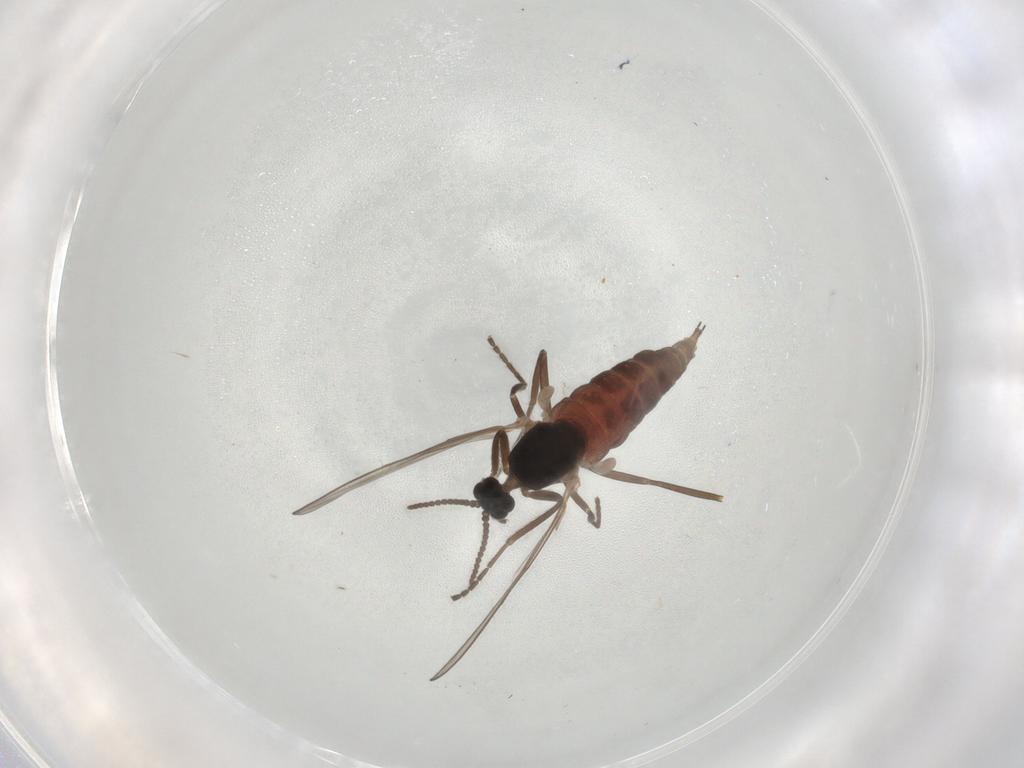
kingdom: Animalia
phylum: Arthropoda
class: Insecta
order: Diptera
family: Cecidomyiidae
